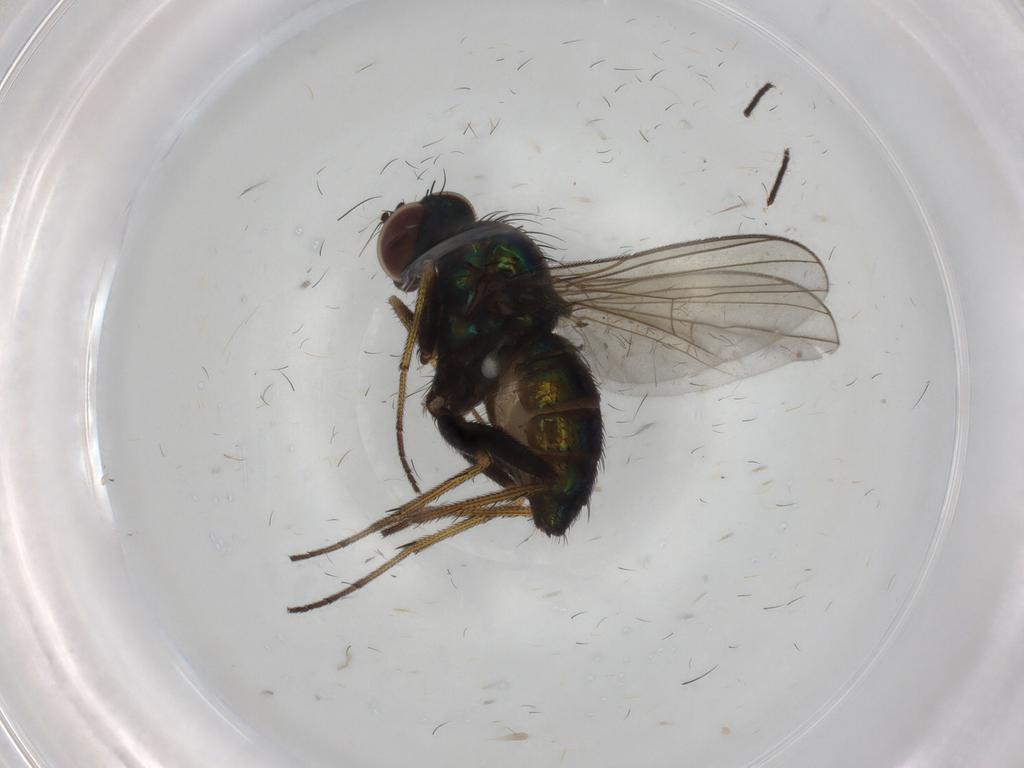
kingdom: Animalia
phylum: Arthropoda
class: Insecta
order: Diptera
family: Dolichopodidae
